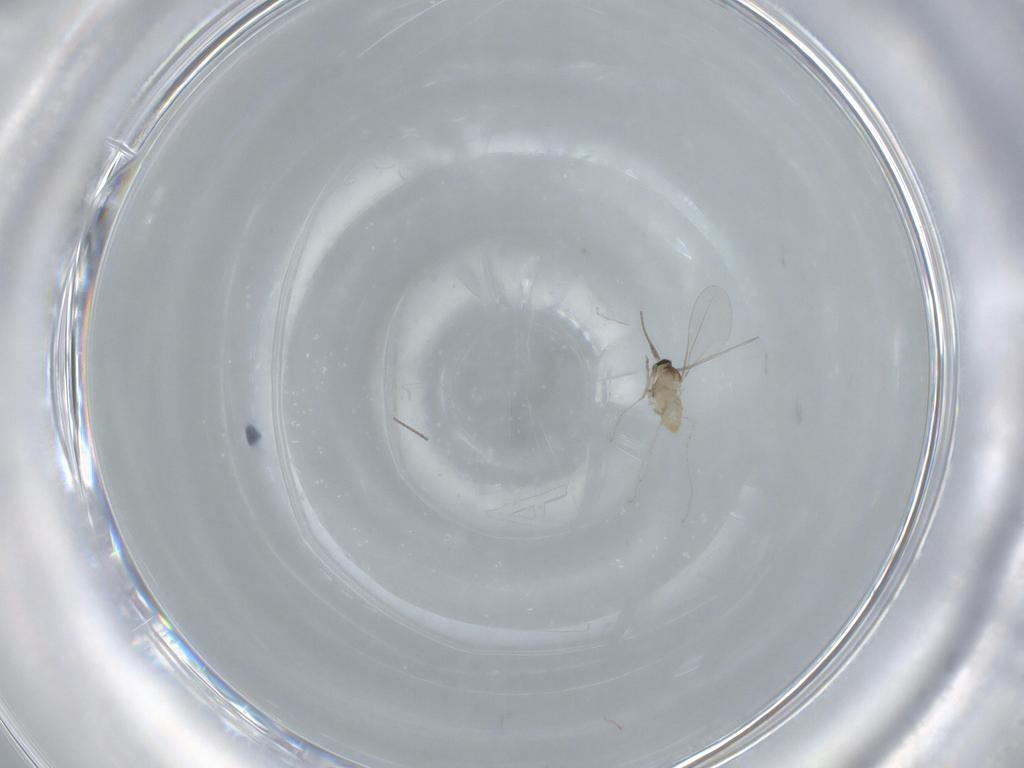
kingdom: Animalia
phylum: Arthropoda
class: Insecta
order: Diptera
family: Cecidomyiidae
